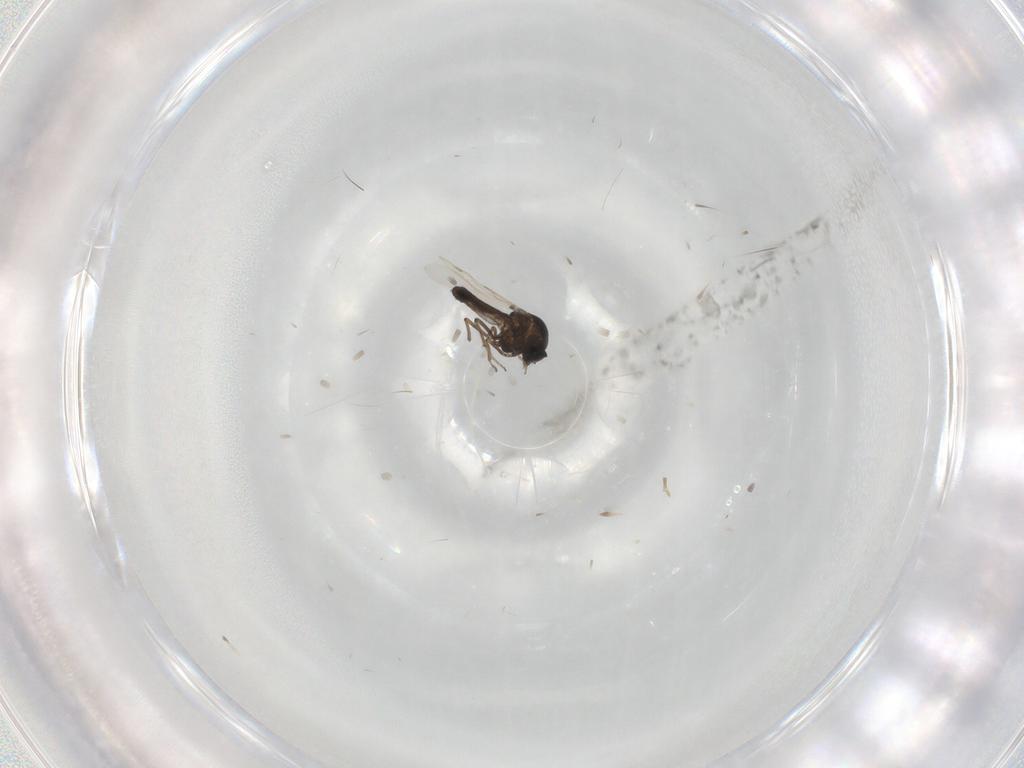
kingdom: Animalia
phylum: Arthropoda
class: Insecta
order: Diptera
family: Ceratopogonidae
